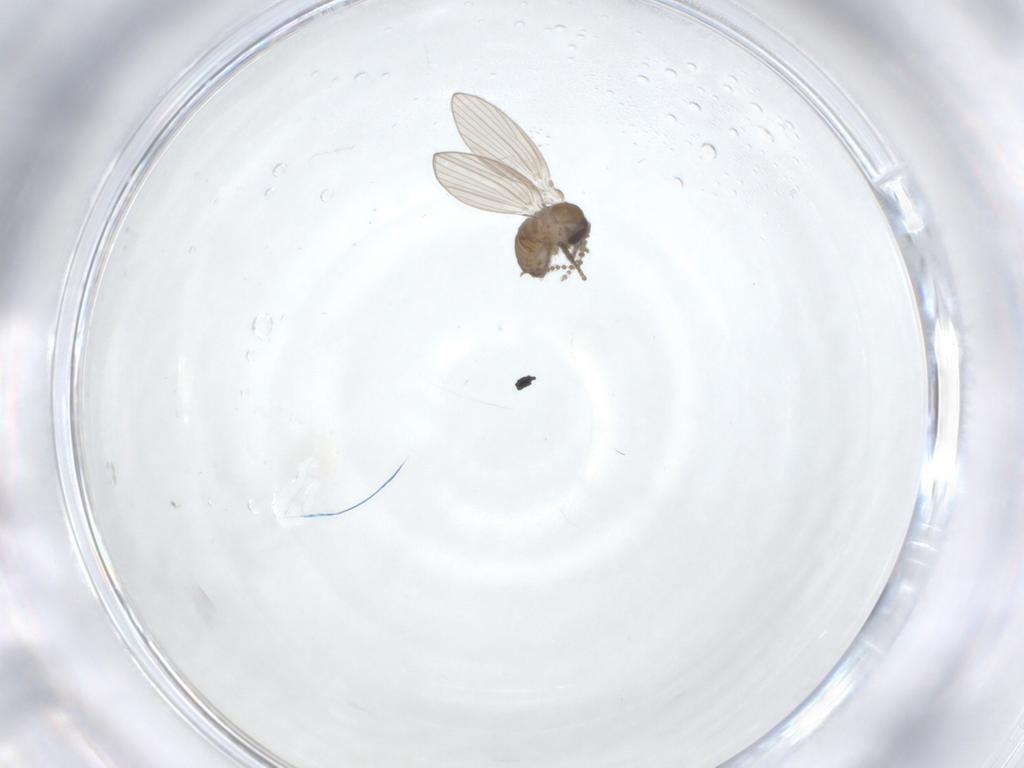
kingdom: Animalia
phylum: Arthropoda
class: Insecta
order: Diptera
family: Psychodidae
